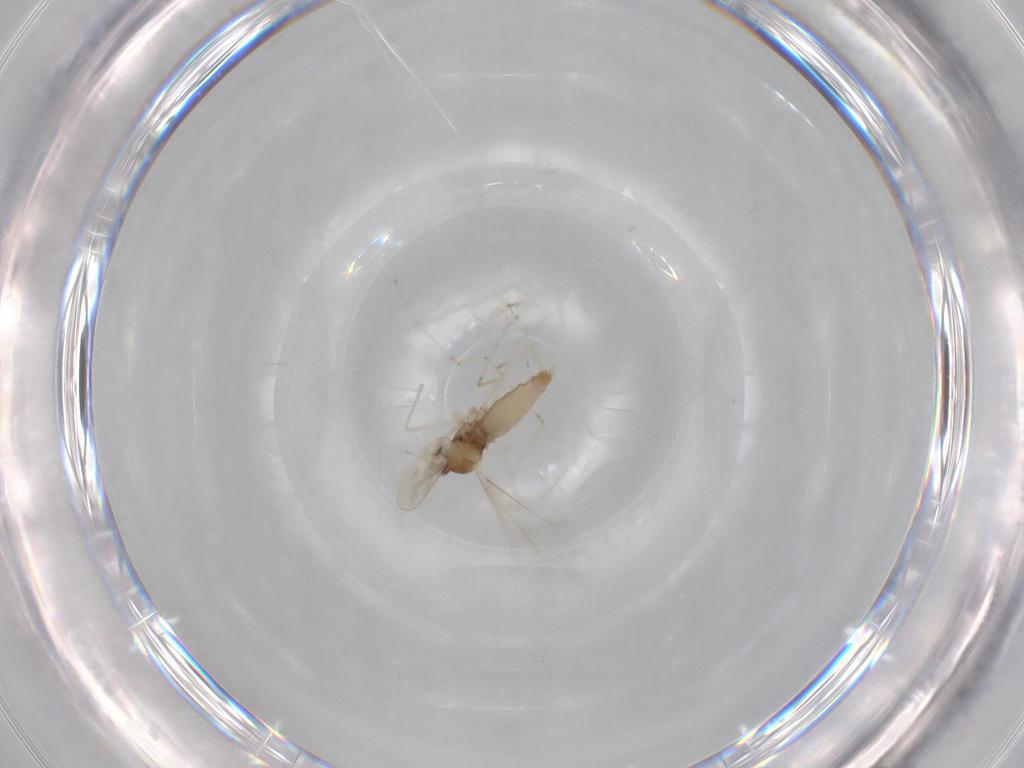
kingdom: Animalia
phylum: Arthropoda
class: Insecta
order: Diptera
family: Cecidomyiidae
